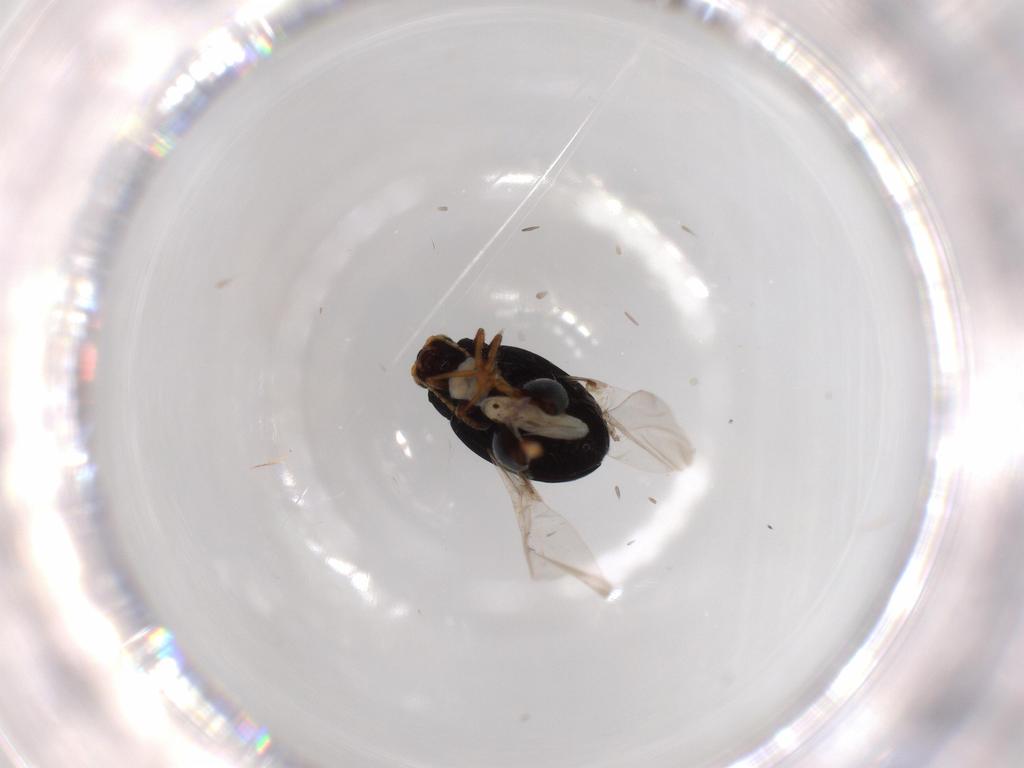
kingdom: Animalia
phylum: Arthropoda
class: Insecta
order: Coleoptera
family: Chrysomelidae
